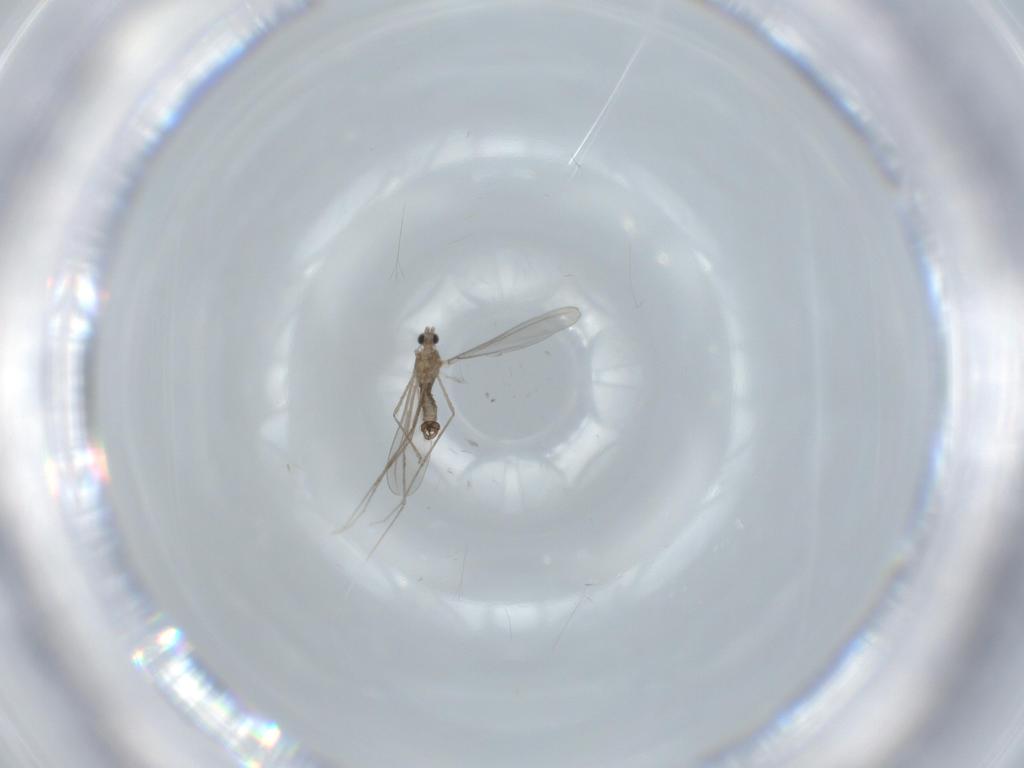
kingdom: Animalia
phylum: Arthropoda
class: Insecta
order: Diptera
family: Cecidomyiidae
